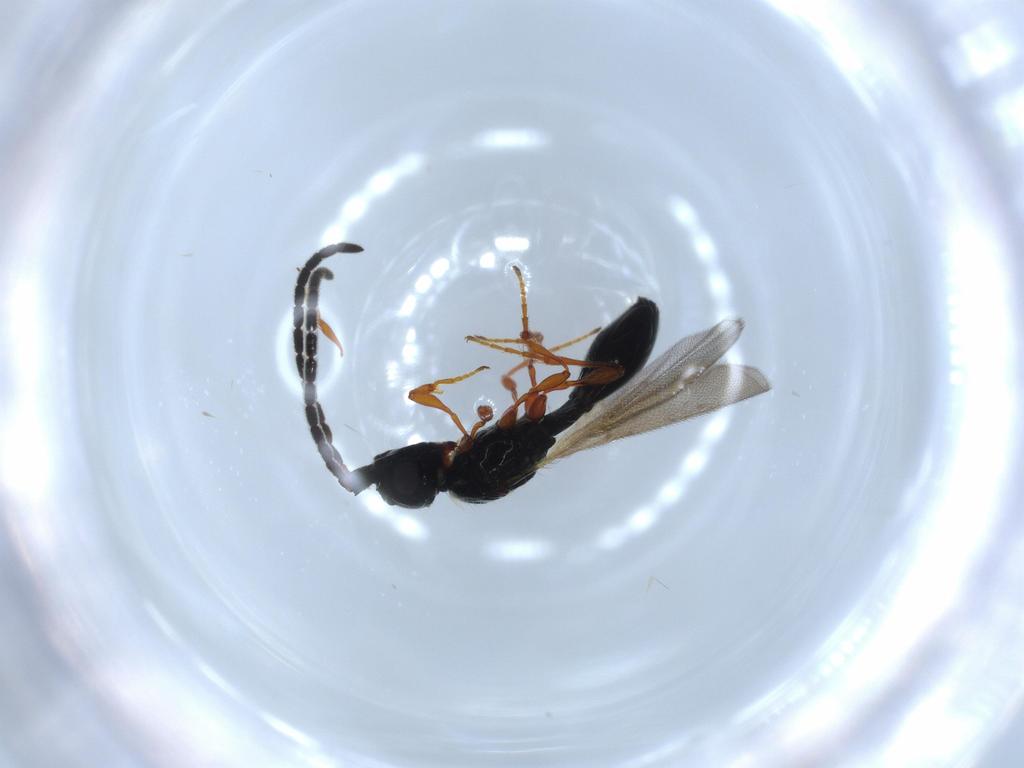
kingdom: Animalia
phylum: Arthropoda
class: Insecta
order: Hymenoptera
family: Diapriidae
